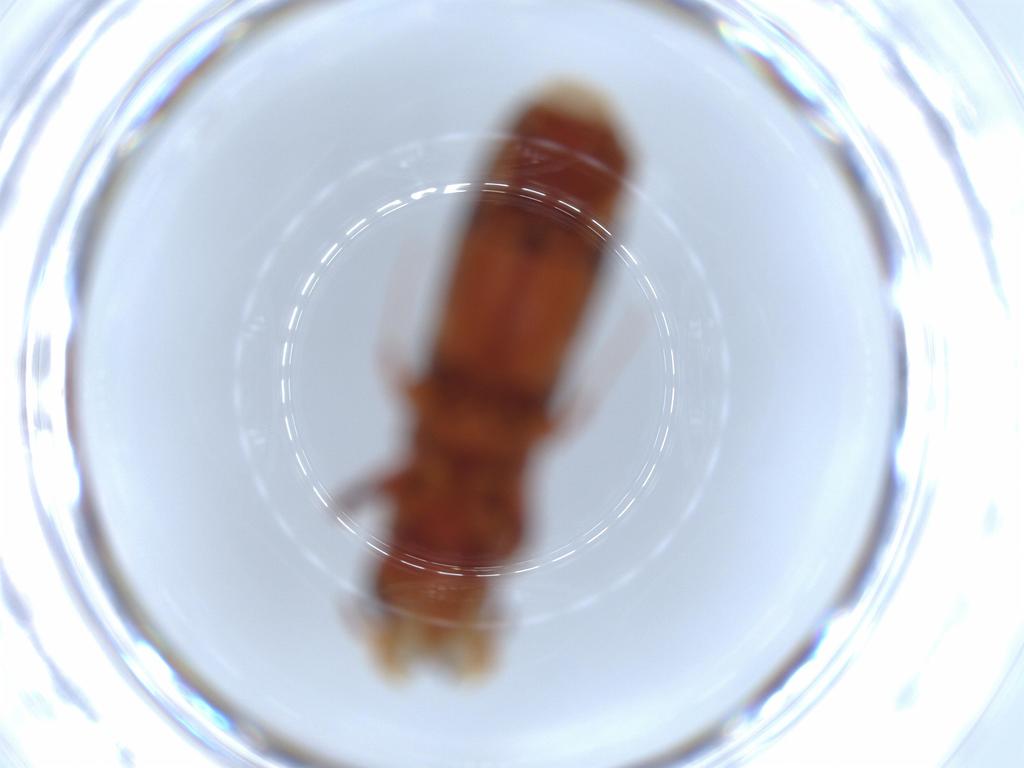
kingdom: Animalia
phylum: Arthropoda
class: Insecta
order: Coleoptera
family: Curculionidae
